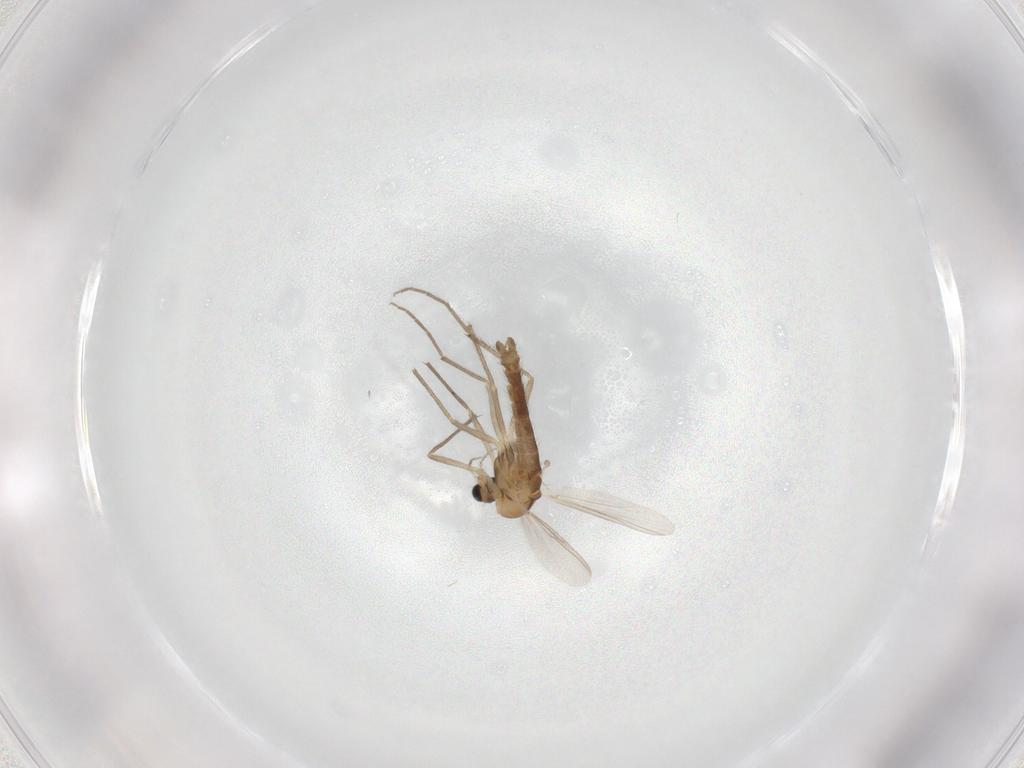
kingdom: Animalia
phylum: Arthropoda
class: Insecta
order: Diptera
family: Chironomidae
